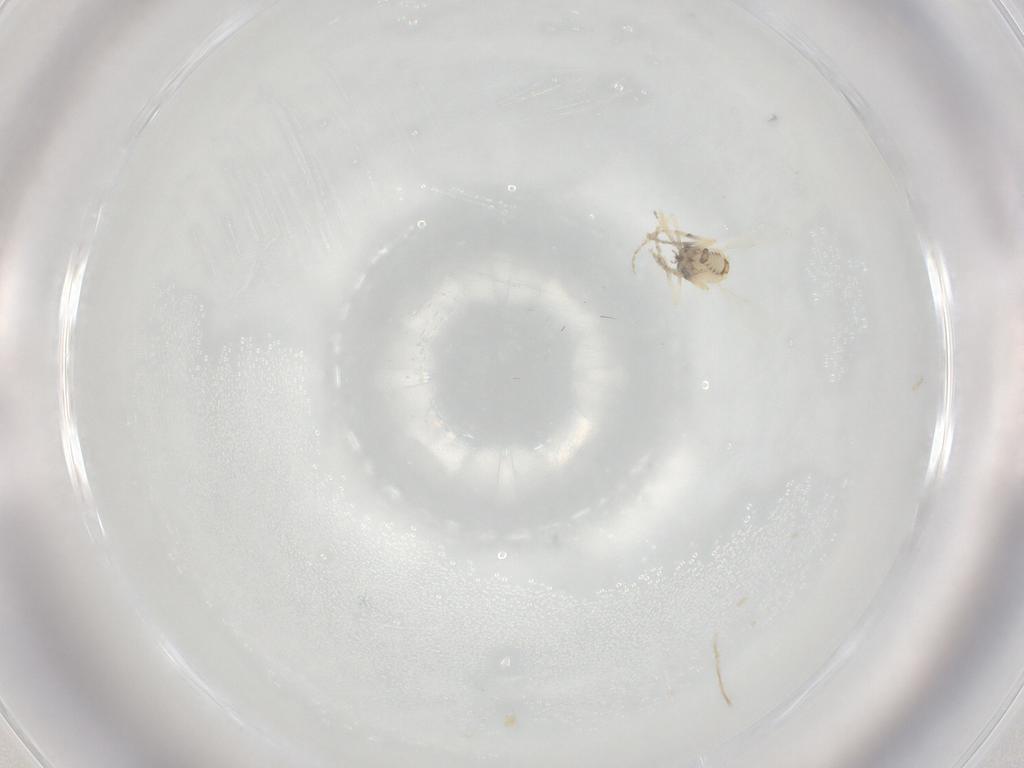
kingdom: Animalia
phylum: Arthropoda
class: Insecta
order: Diptera
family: Ceratopogonidae
